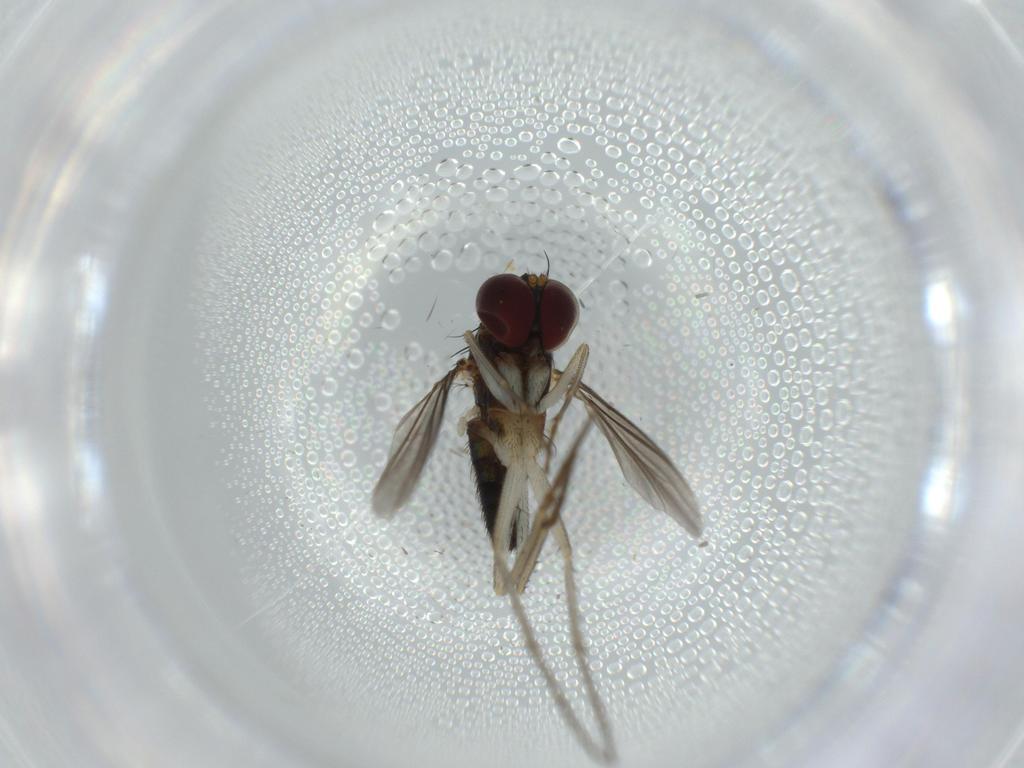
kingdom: Animalia
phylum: Arthropoda
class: Insecta
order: Diptera
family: Dolichopodidae
